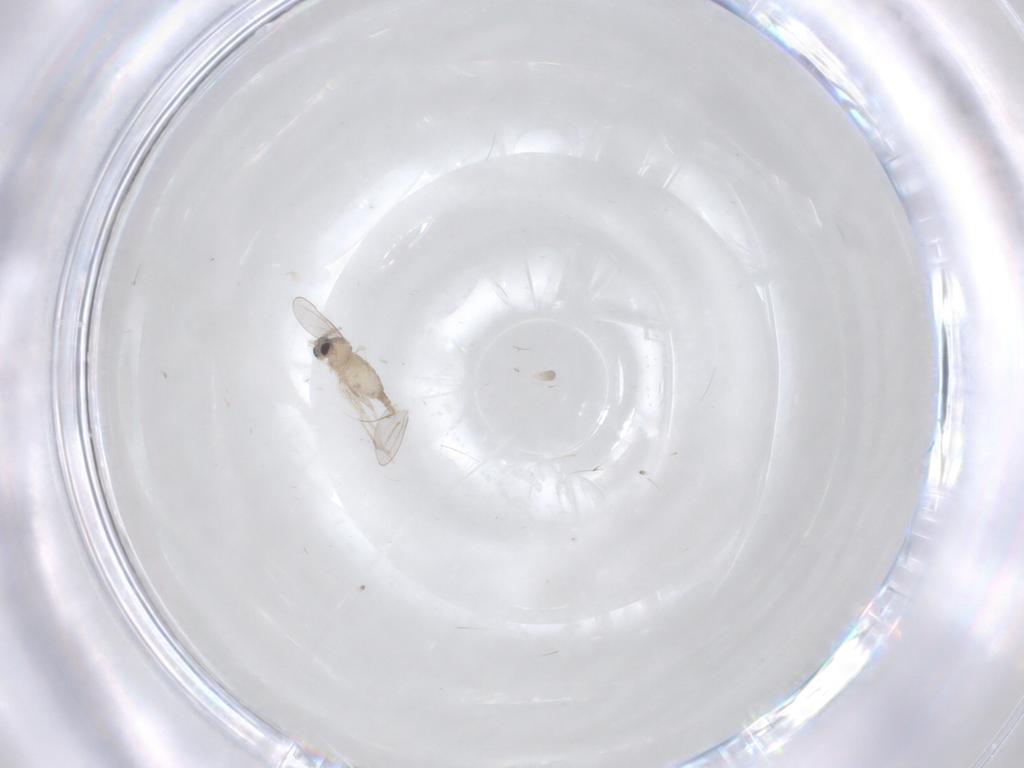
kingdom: Animalia
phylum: Arthropoda
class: Insecta
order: Diptera
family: Cecidomyiidae
